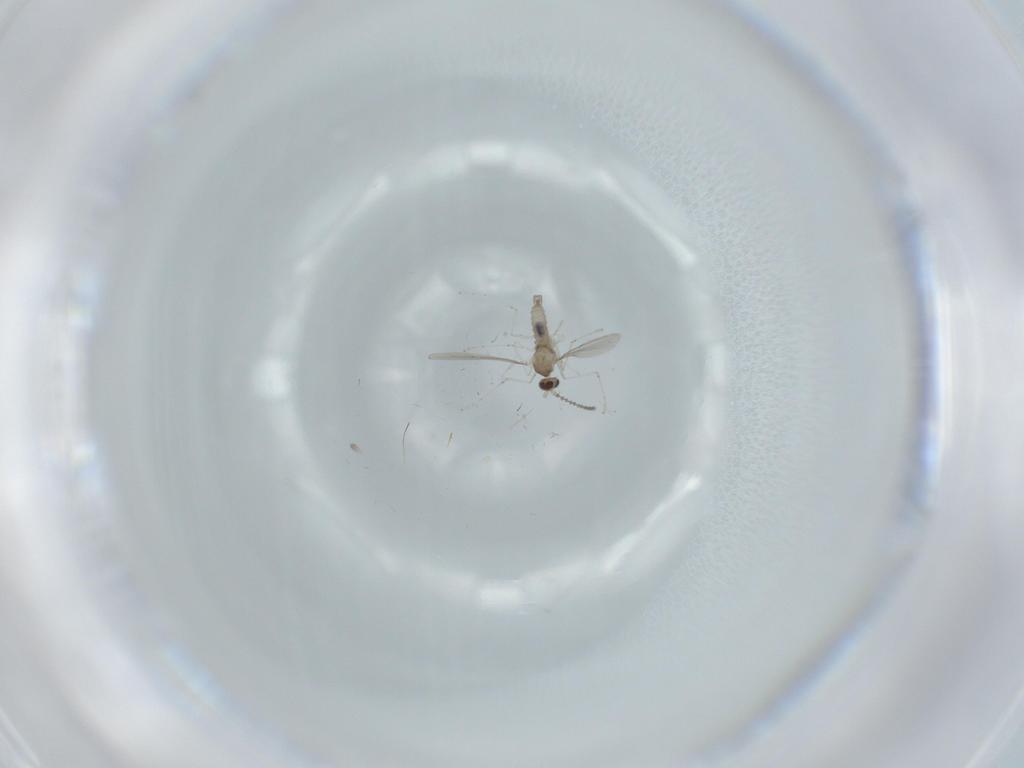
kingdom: Animalia
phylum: Arthropoda
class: Insecta
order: Diptera
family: Cecidomyiidae
